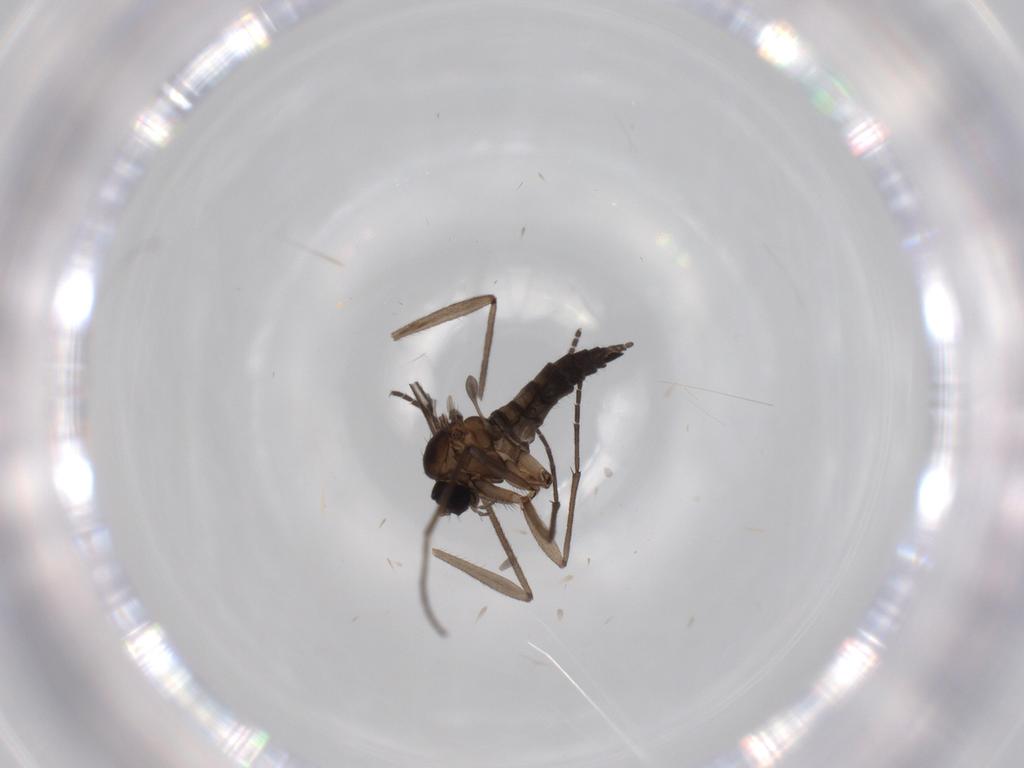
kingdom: Animalia
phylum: Arthropoda
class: Insecta
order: Diptera
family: Sciaridae
